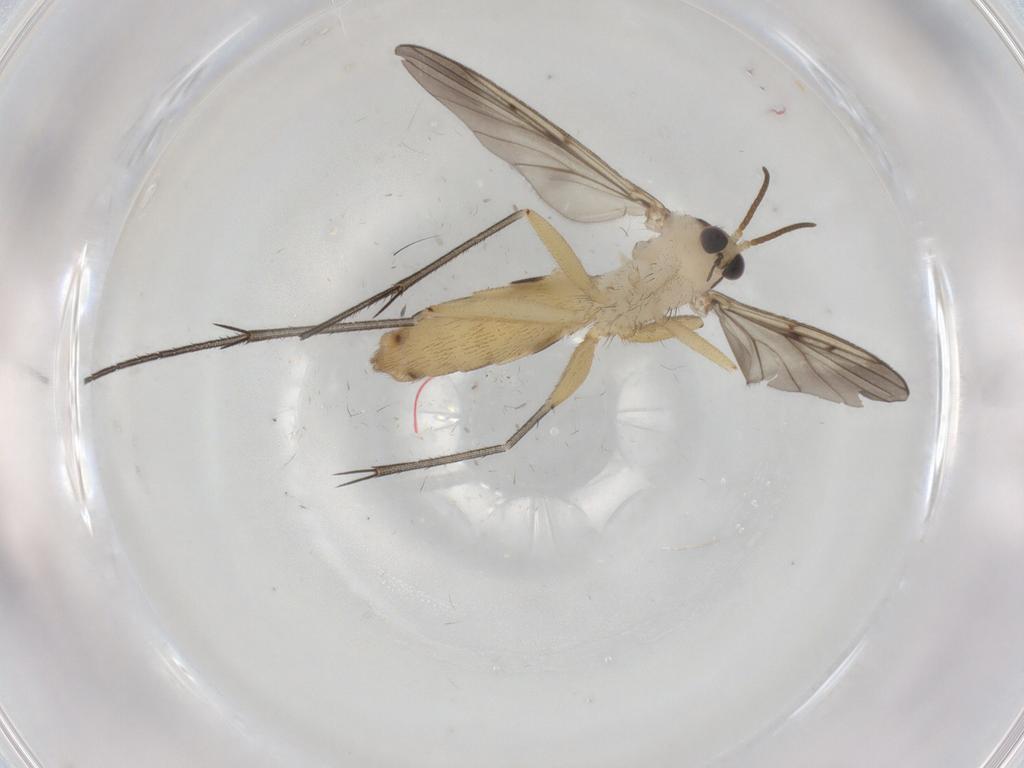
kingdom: Animalia
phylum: Arthropoda
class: Insecta
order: Diptera
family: Mycetophilidae
